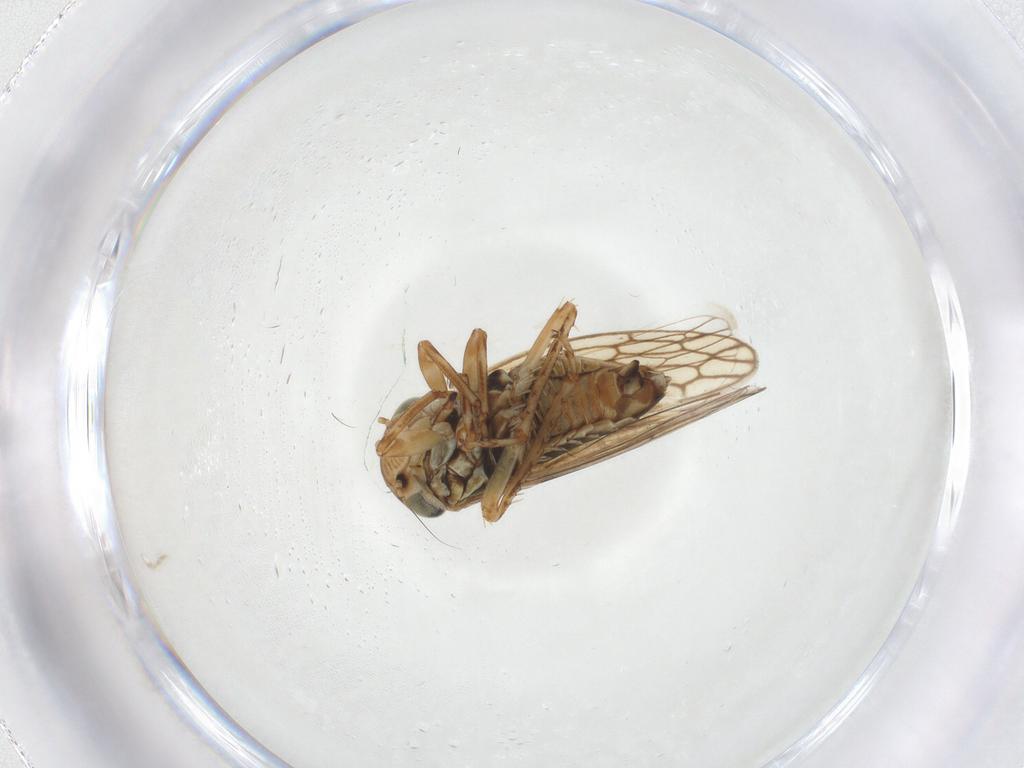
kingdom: Animalia
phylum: Arthropoda
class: Insecta
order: Hemiptera
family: Cicadellidae
